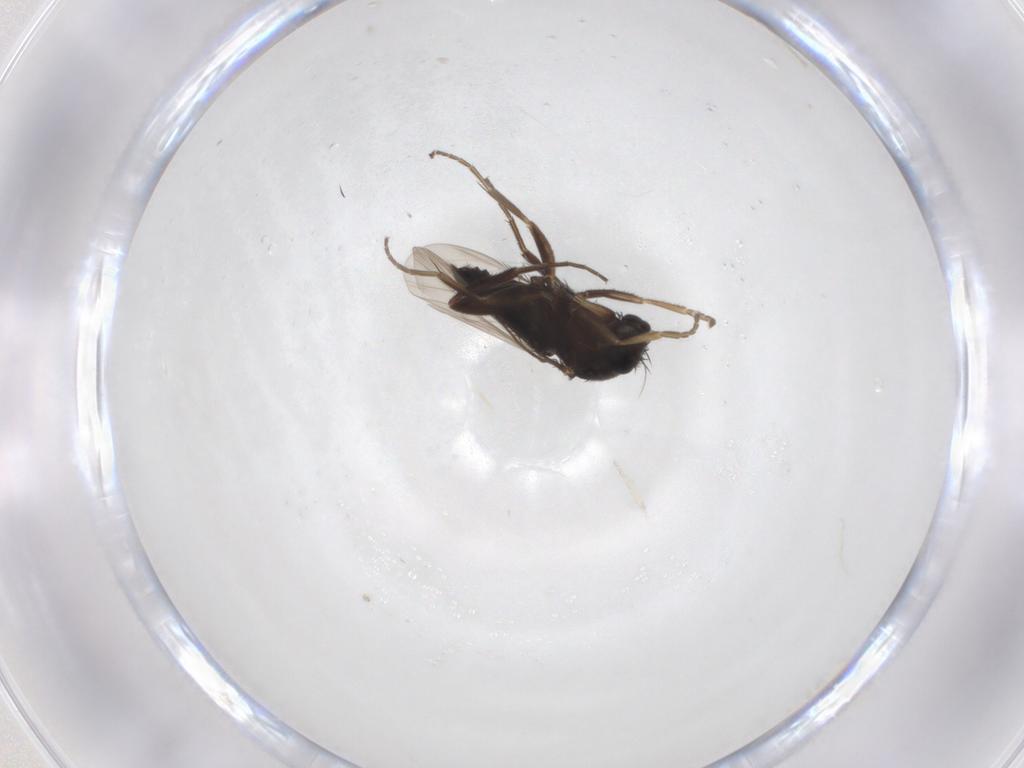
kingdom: Animalia
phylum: Arthropoda
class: Insecta
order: Diptera
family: Phoridae
